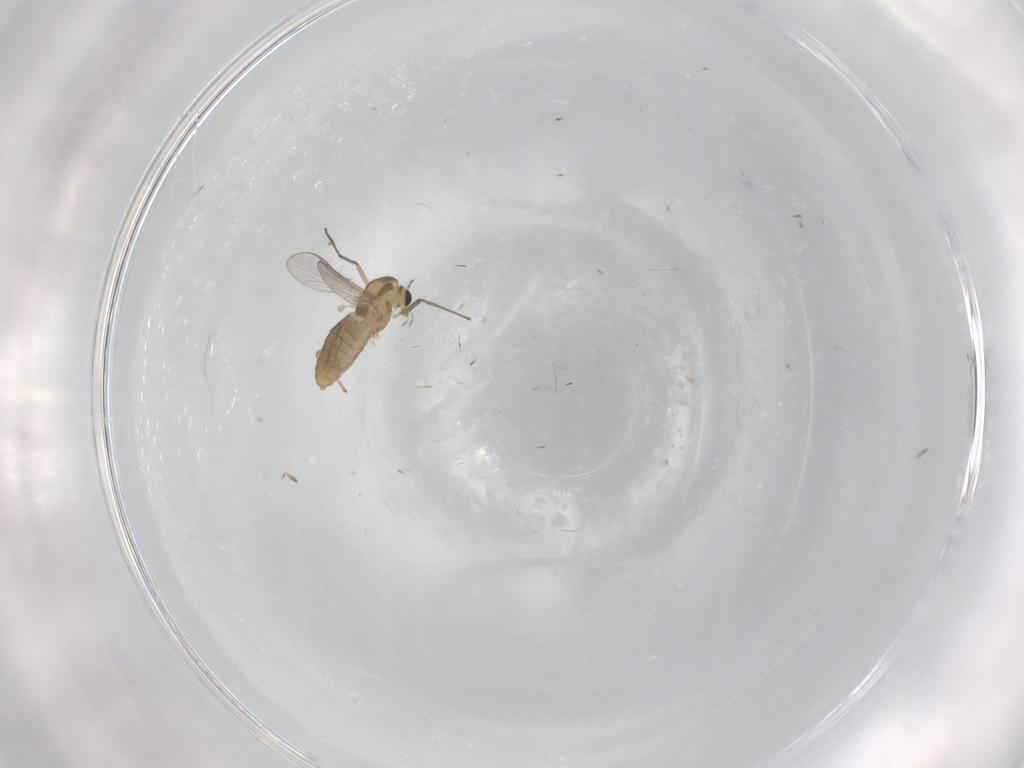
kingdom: Animalia
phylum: Arthropoda
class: Insecta
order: Diptera
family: Chironomidae
